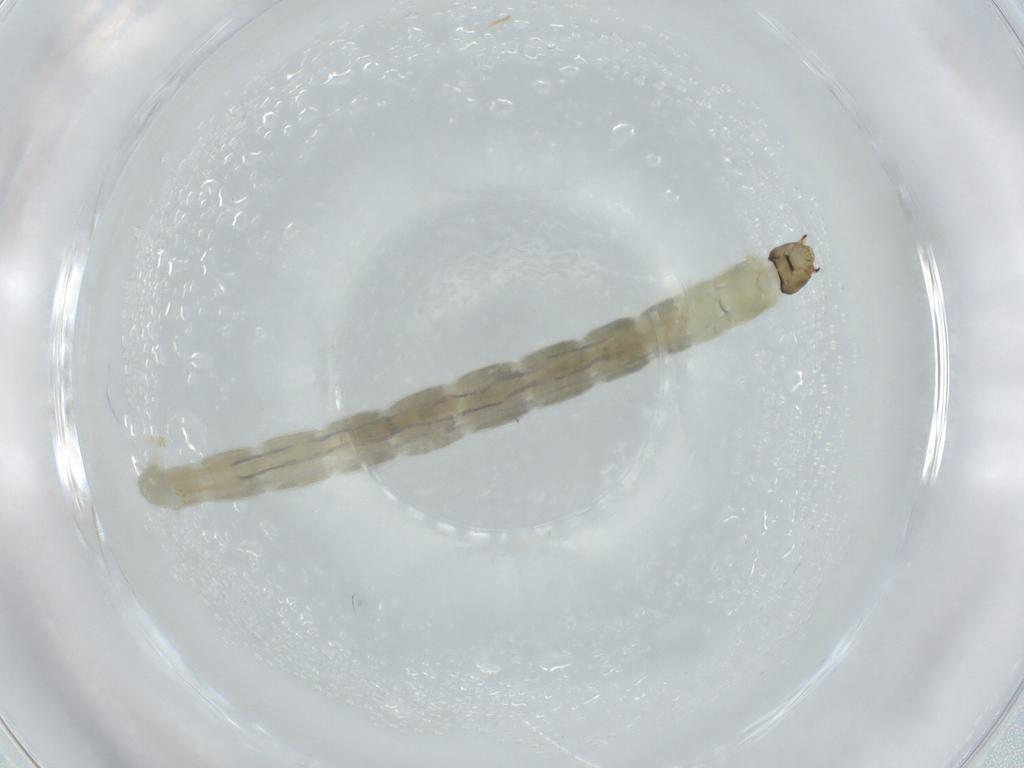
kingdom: Animalia
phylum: Arthropoda
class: Insecta
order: Diptera
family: Chironomidae
